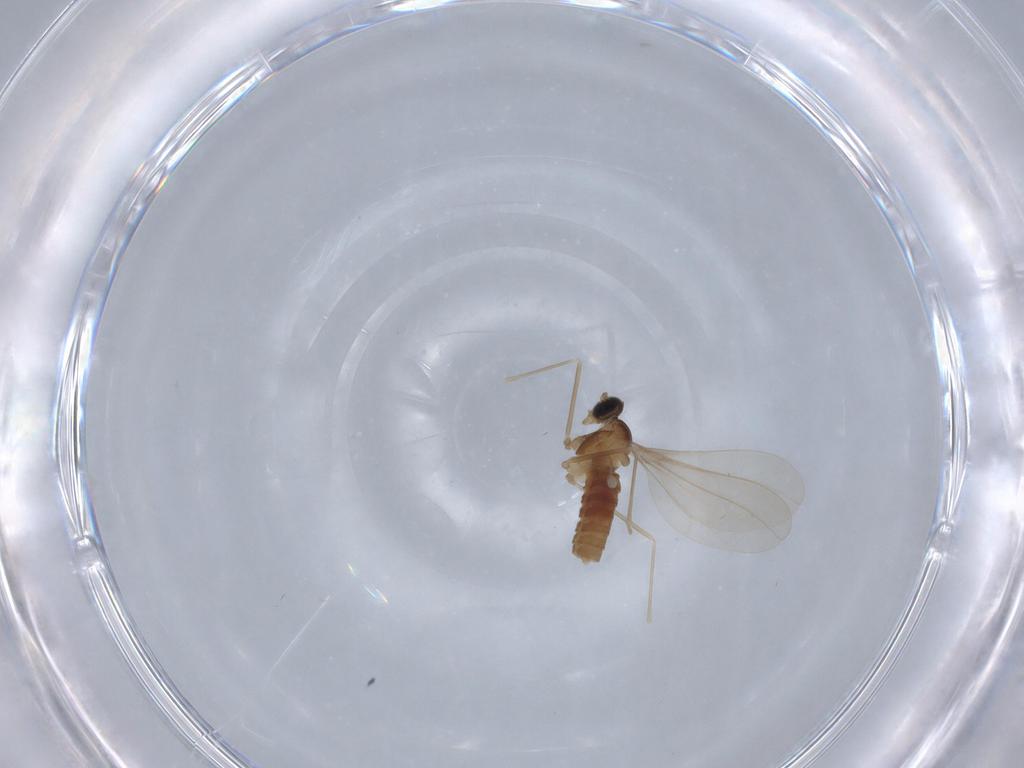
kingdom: Animalia
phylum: Arthropoda
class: Insecta
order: Diptera
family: Cecidomyiidae
